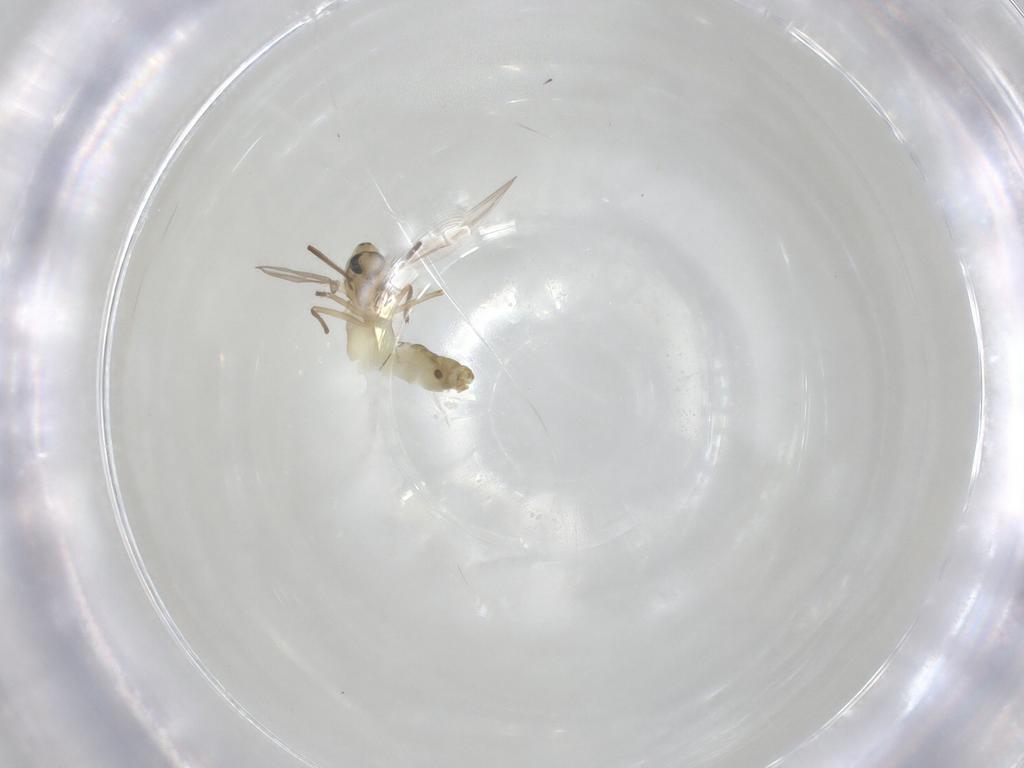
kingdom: Animalia
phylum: Arthropoda
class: Insecta
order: Diptera
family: Chironomidae
